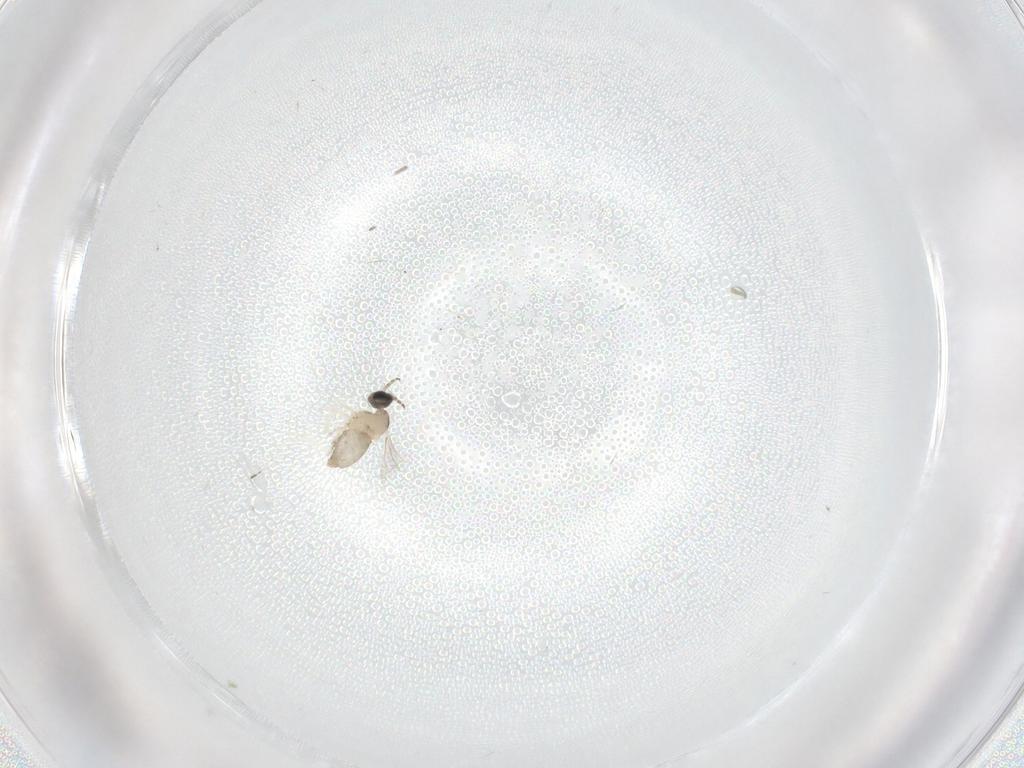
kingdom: Animalia
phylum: Arthropoda
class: Insecta
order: Diptera
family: Cecidomyiidae
